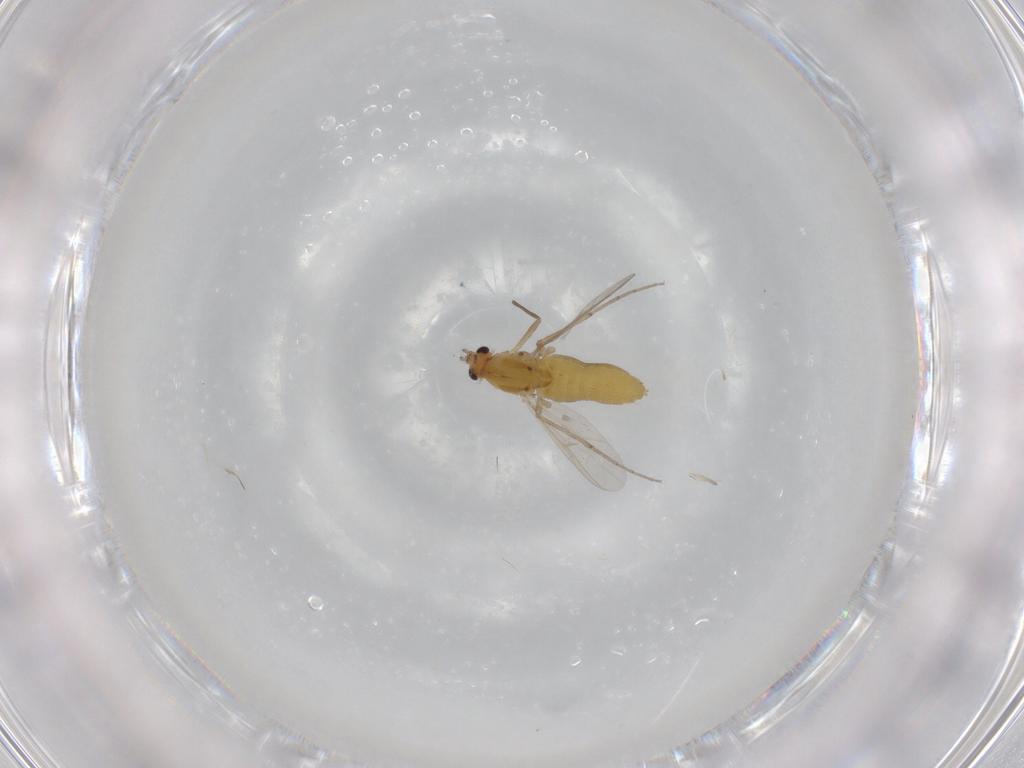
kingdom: Animalia
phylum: Arthropoda
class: Insecta
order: Diptera
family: Chironomidae
